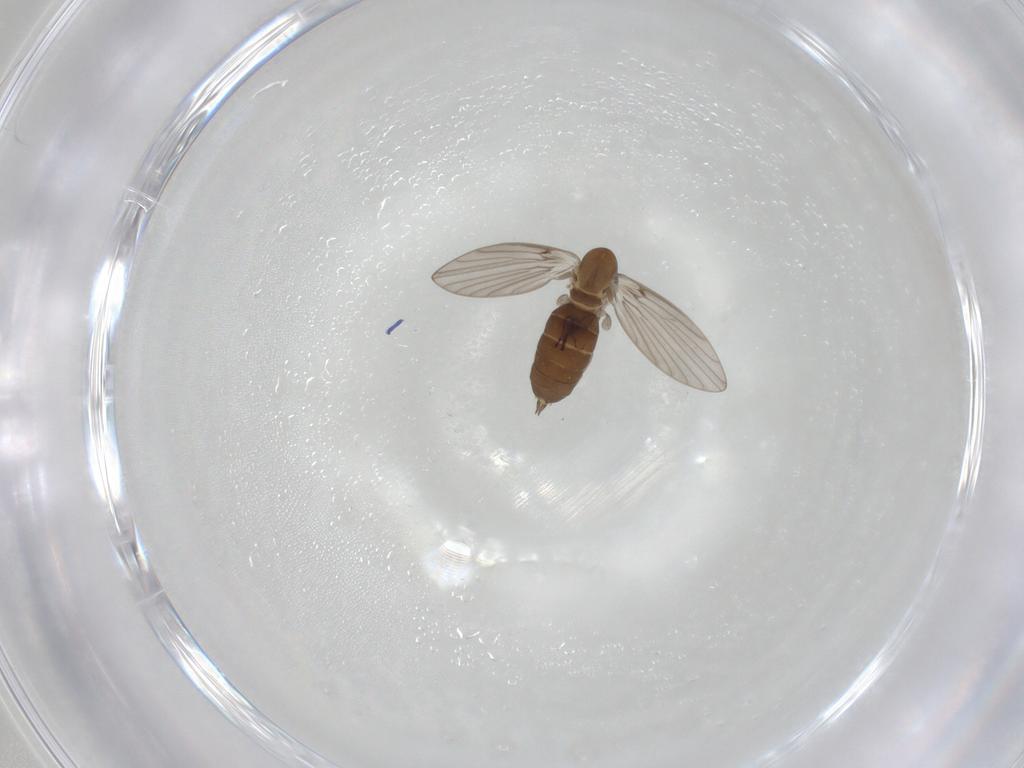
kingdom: Animalia
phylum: Arthropoda
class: Insecta
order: Diptera
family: Psychodidae
